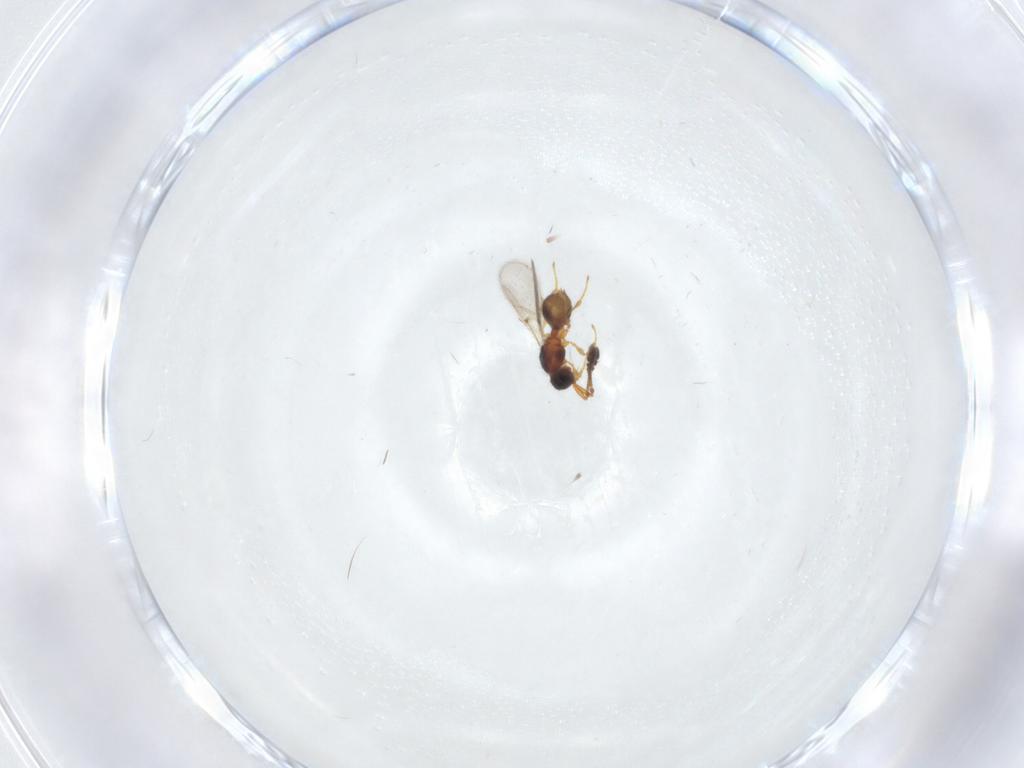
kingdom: Animalia
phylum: Arthropoda
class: Insecta
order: Hymenoptera
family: Diapriidae
